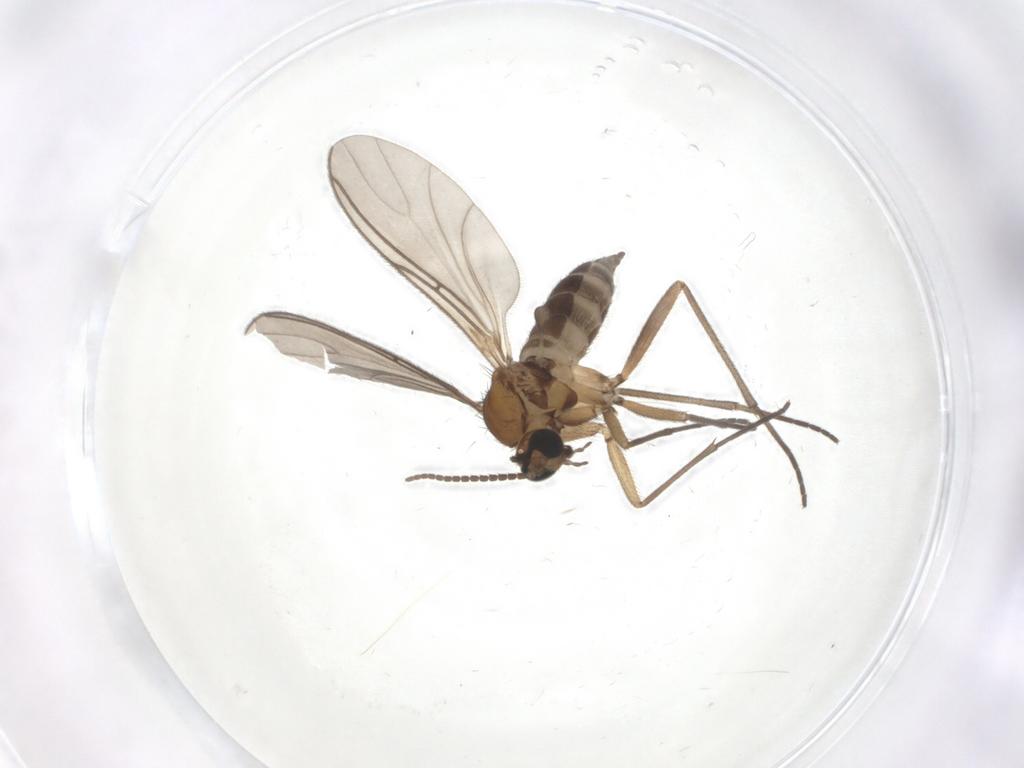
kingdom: Animalia
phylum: Arthropoda
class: Insecta
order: Diptera
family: Sciaridae
